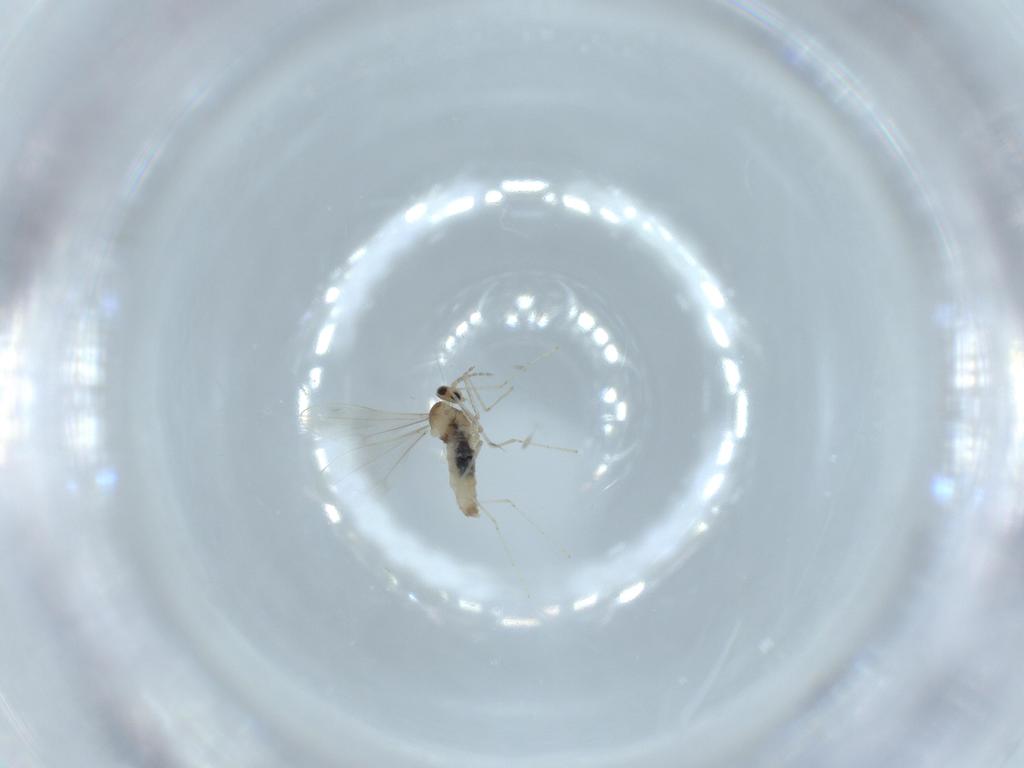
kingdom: Animalia
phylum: Arthropoda
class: Insecta
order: Diptera
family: Cecidomyiidae
